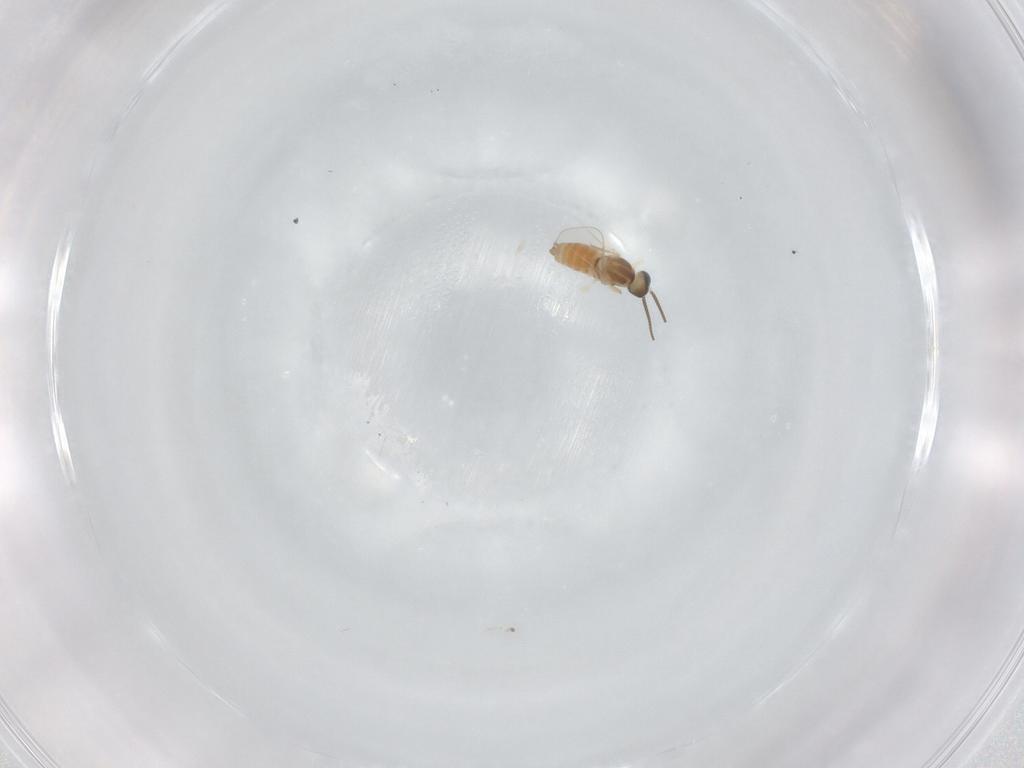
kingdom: Animalia
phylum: Arthropoda
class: Insecta
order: Diptera
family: Cecidomyiidae
